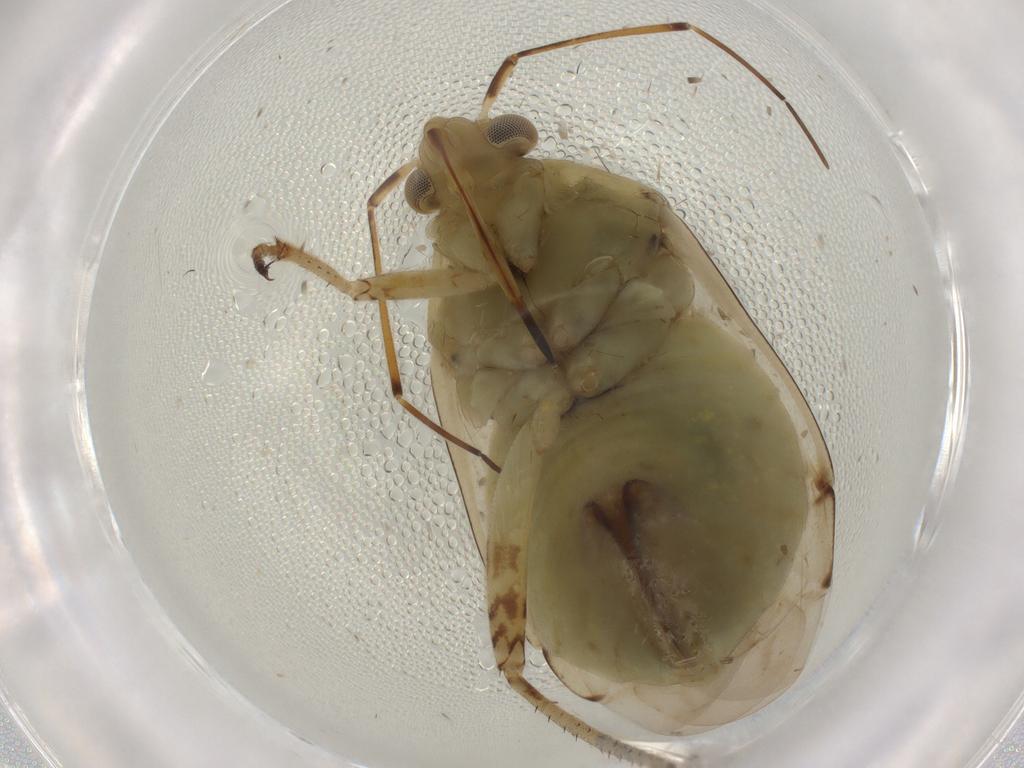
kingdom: Animalia
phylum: Arthropoda
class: Insecta
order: Hemiptera
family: Miridae
